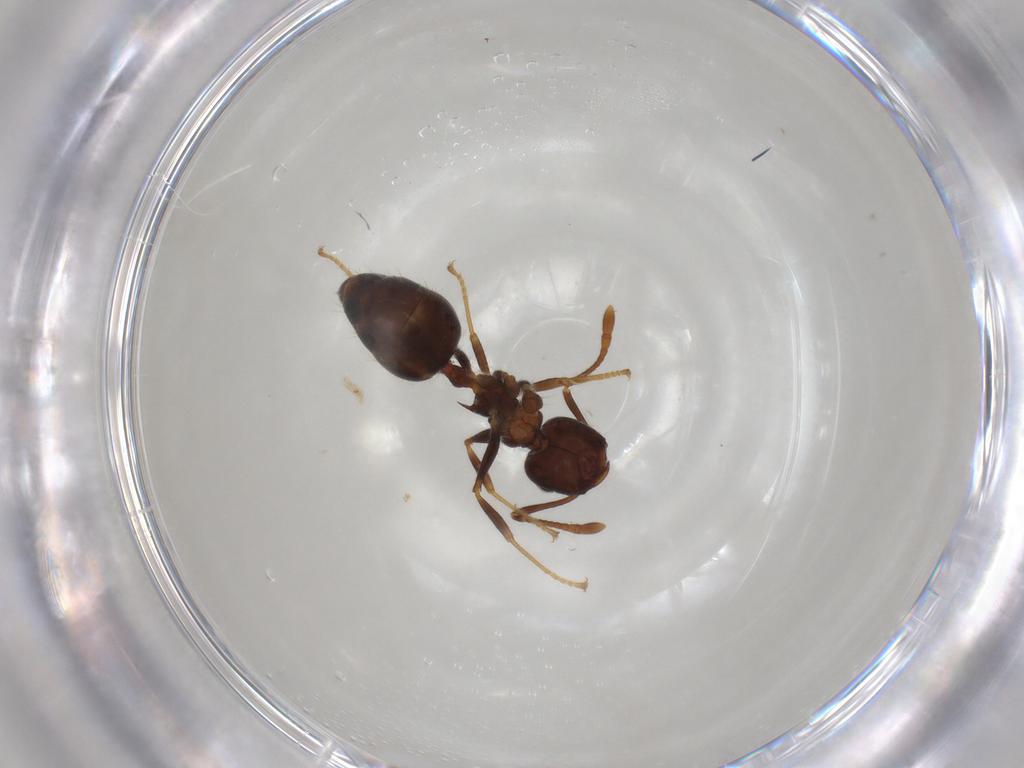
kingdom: Animalia
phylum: Arthropoda
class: Insecta
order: Hymenoptera
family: Formicidae
